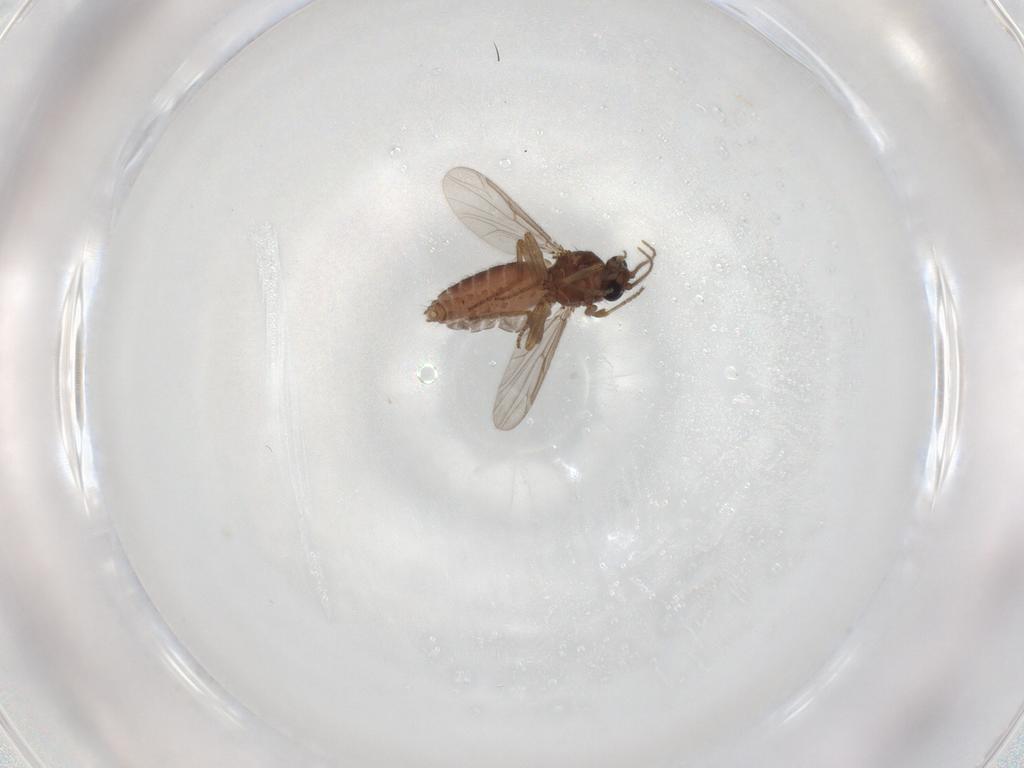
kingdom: Animalia
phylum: Arthropoda
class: Insecta
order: Diptera
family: Ceratopogonidae
